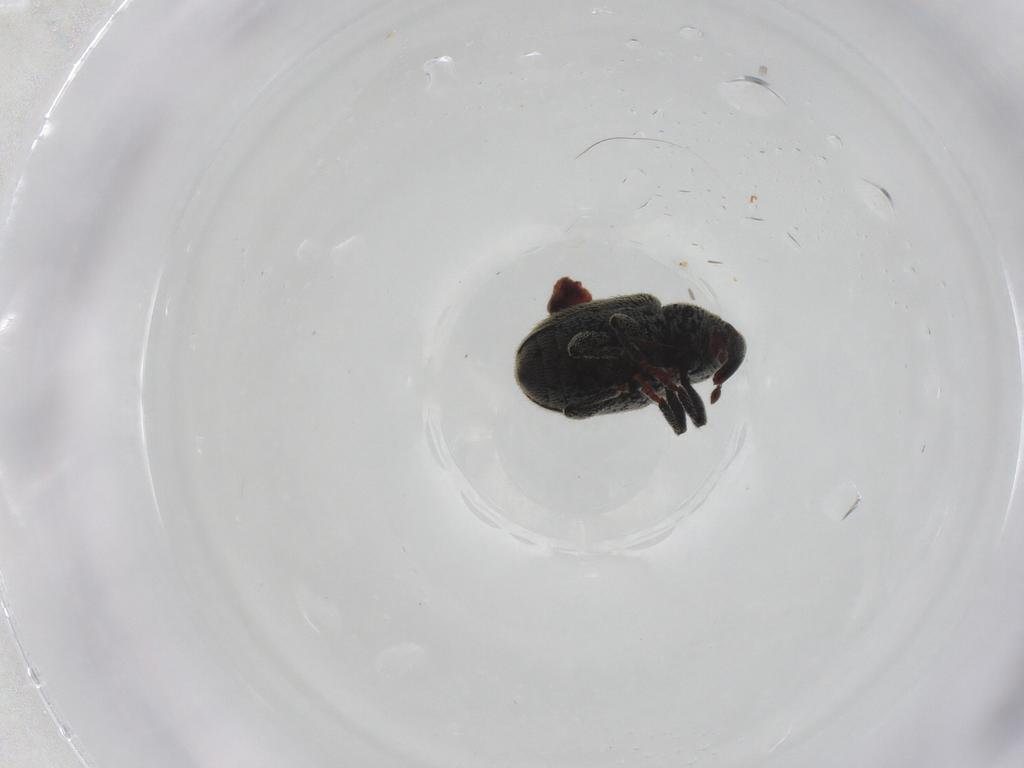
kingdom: Animalia
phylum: Arthropoda
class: Insecta
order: Coleoptera
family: Curculionidae
